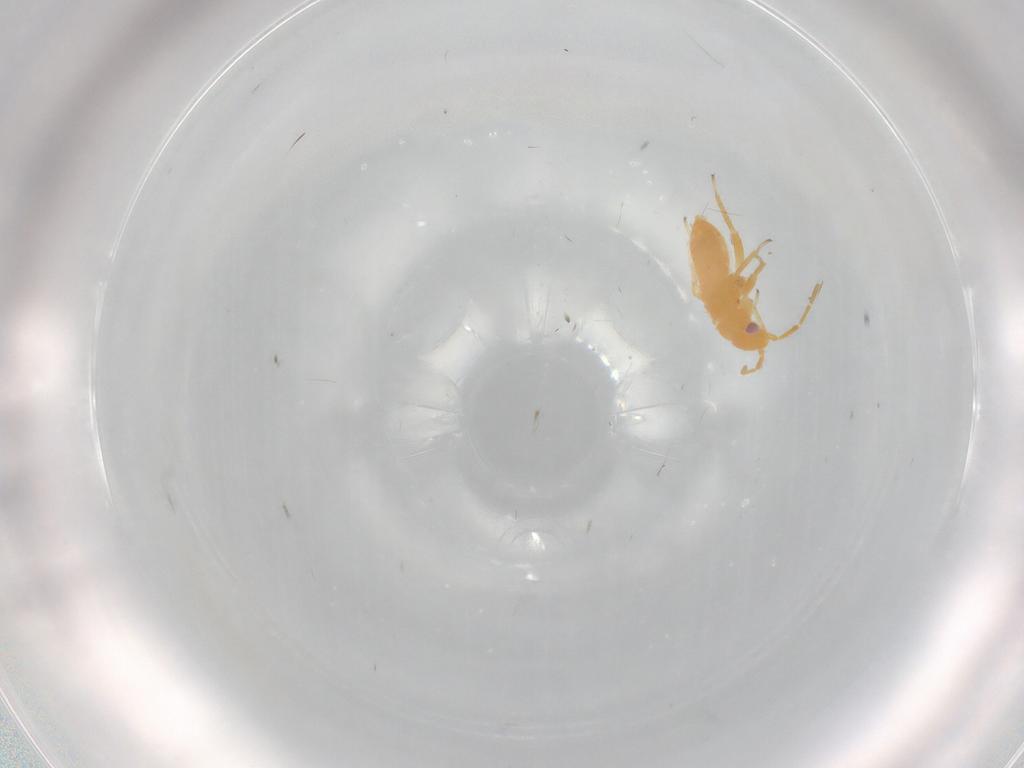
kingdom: Animalia
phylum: Arthropoda
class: Insecta
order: Hemiptera
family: Miridae
